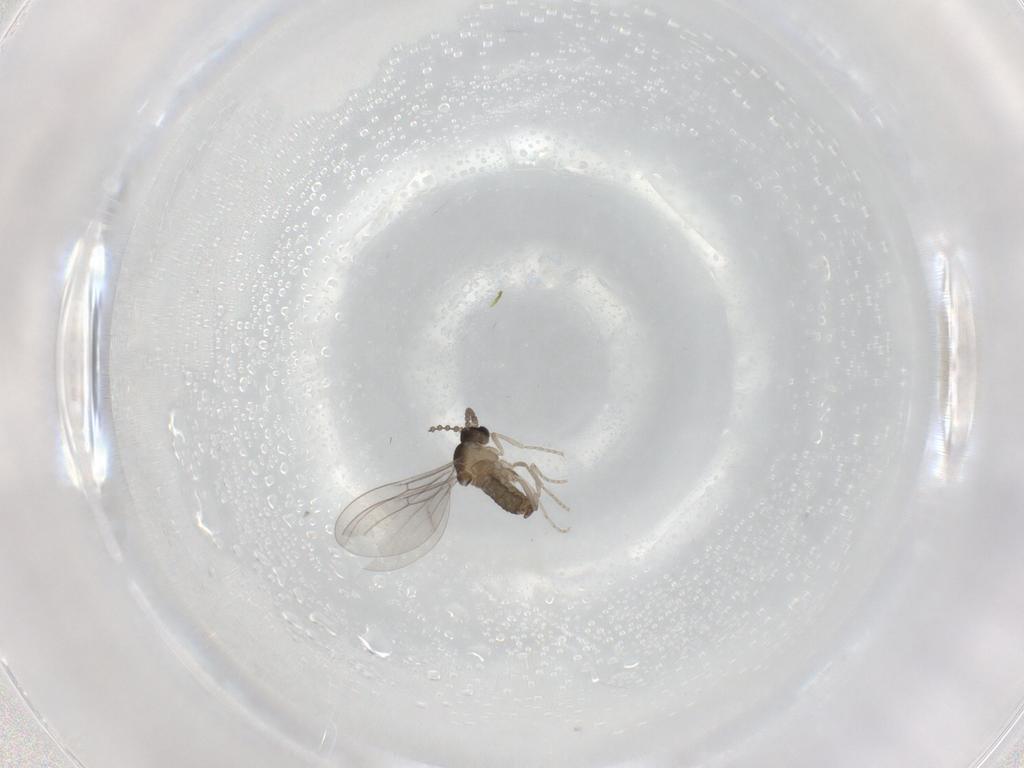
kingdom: Animalia
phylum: Arthropoda
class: Insecta
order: Diptera
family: Cecidomyiidae
